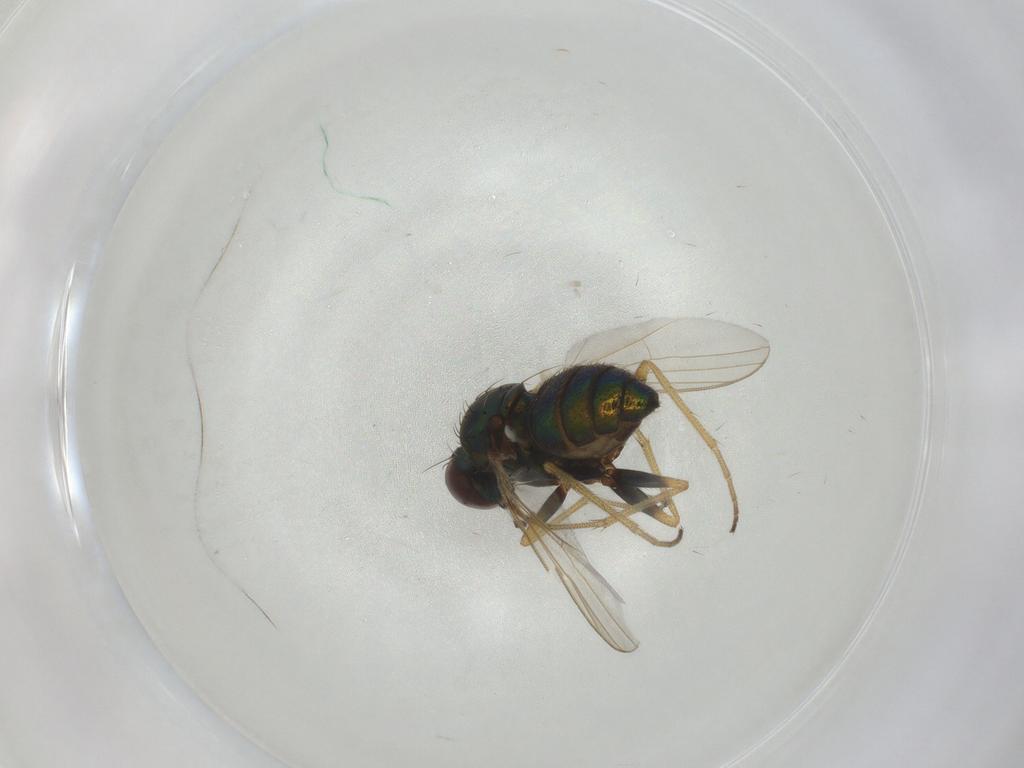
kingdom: Animalia
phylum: Arthropoda
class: Insecta
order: Diptera
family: Dolichopodidae
